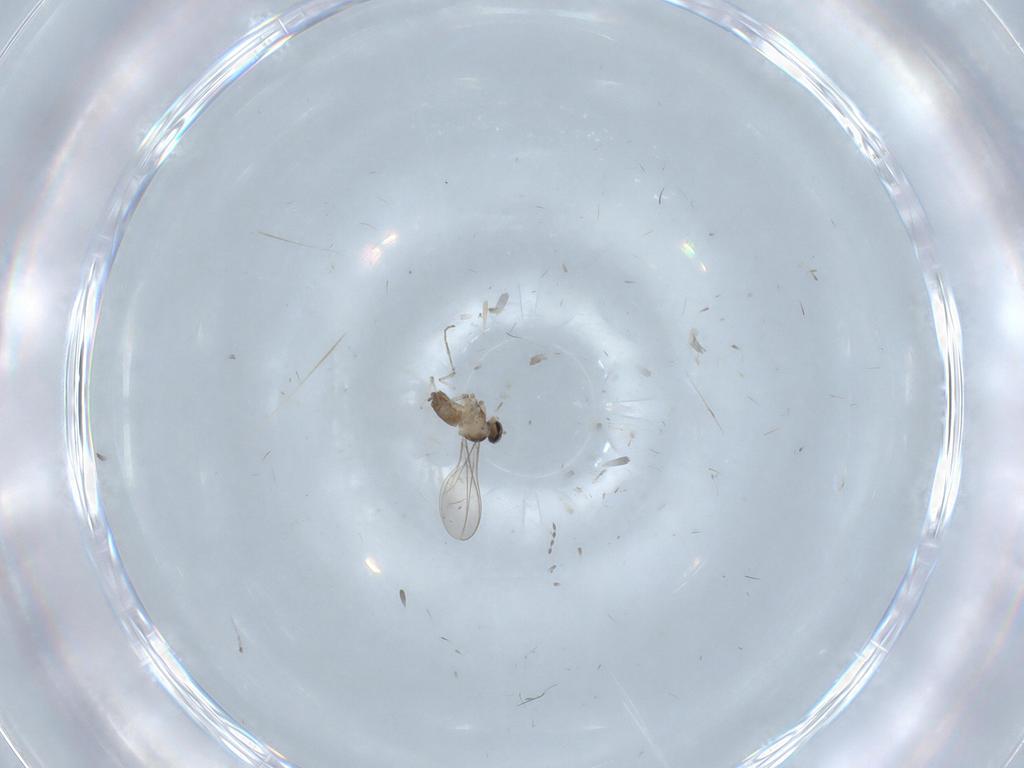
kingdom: Animalia
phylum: Arthropoda
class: Insecta
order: Diptera
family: Cecidomyiidae
